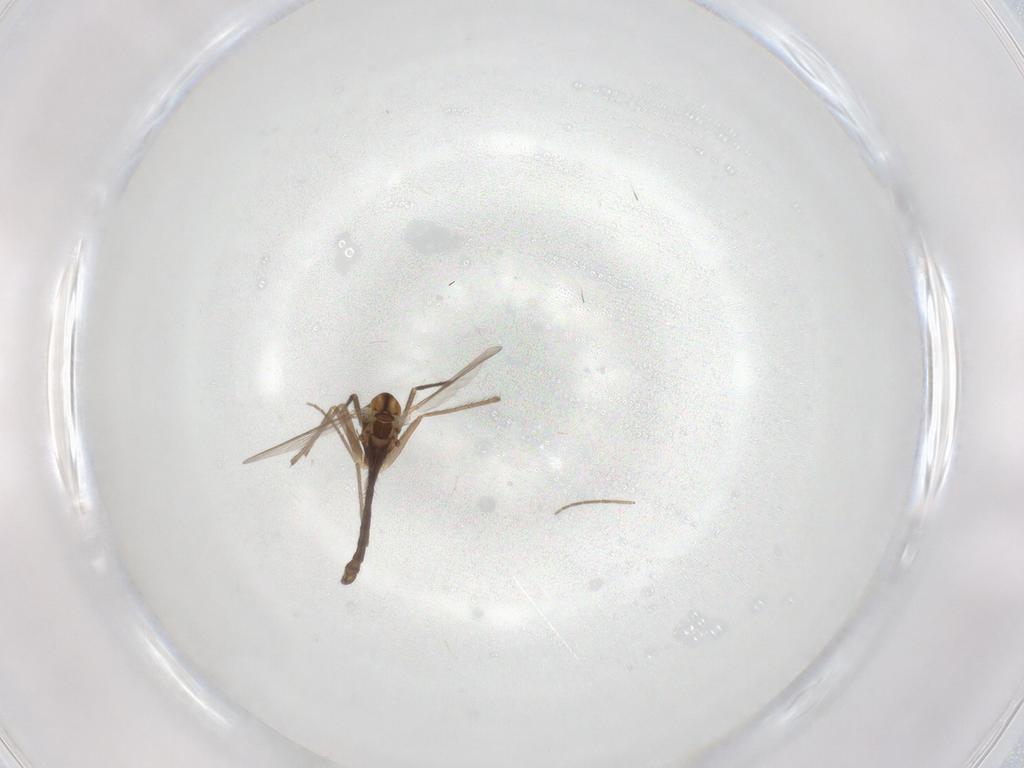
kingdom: Animalia
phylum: Arthropoda
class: Insecta
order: Diptera
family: Chironomidae
